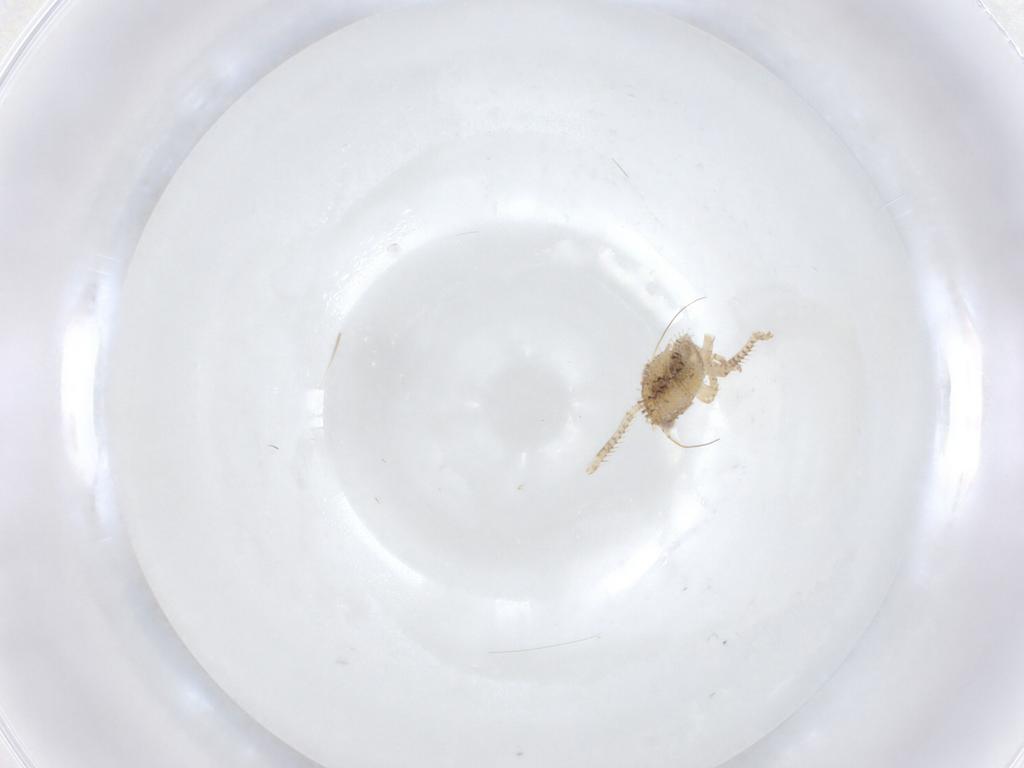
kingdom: Animalia
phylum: Arthropoda
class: Insecta
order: Hemiptera
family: Cicadellidae
